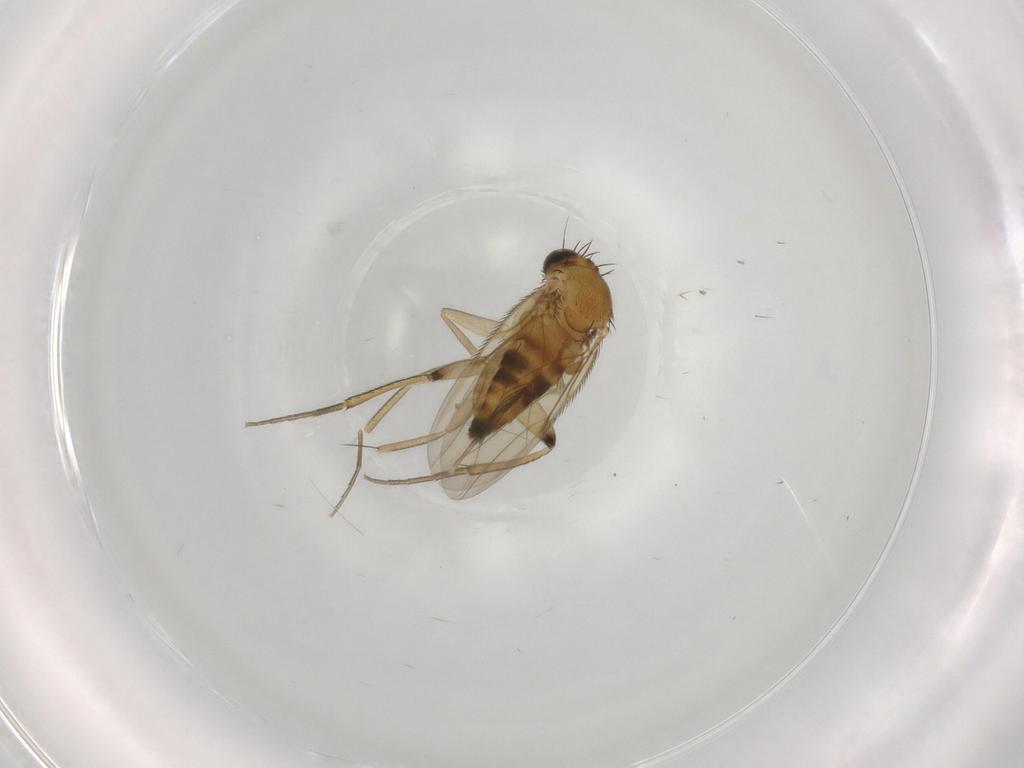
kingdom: Animalia
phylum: Arthropoda
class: Insecta
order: Diptera
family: Phoridae
